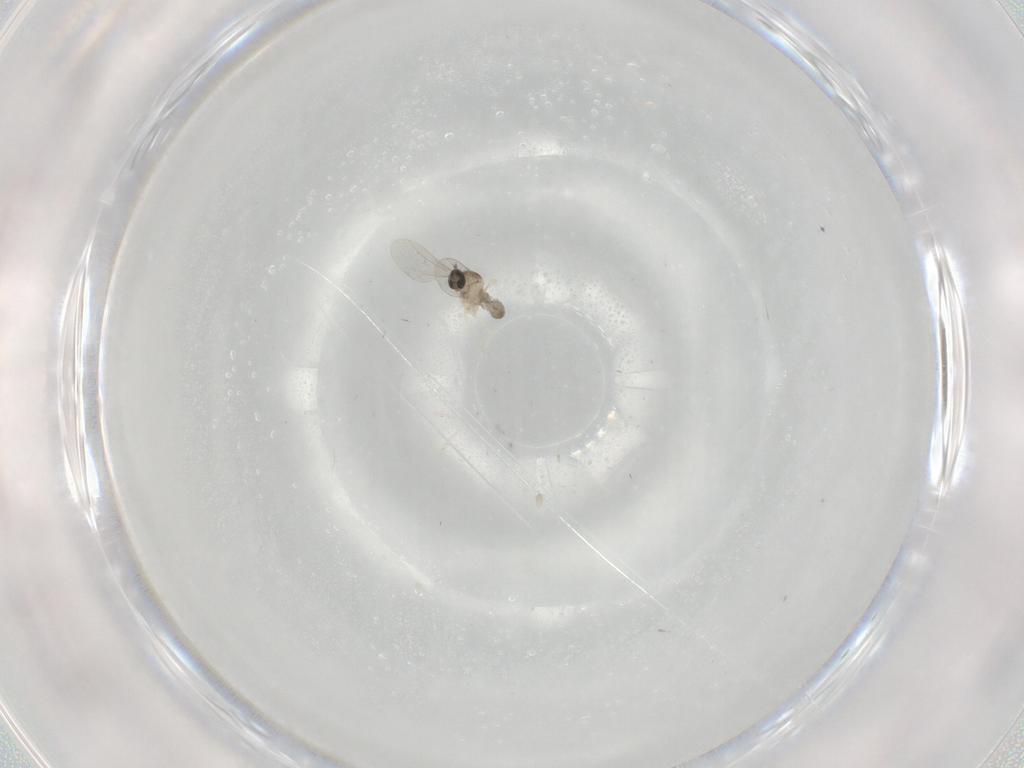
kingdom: Animalia
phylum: Arthropoda
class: Insecta
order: Diptera
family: Cecidomyiidae
